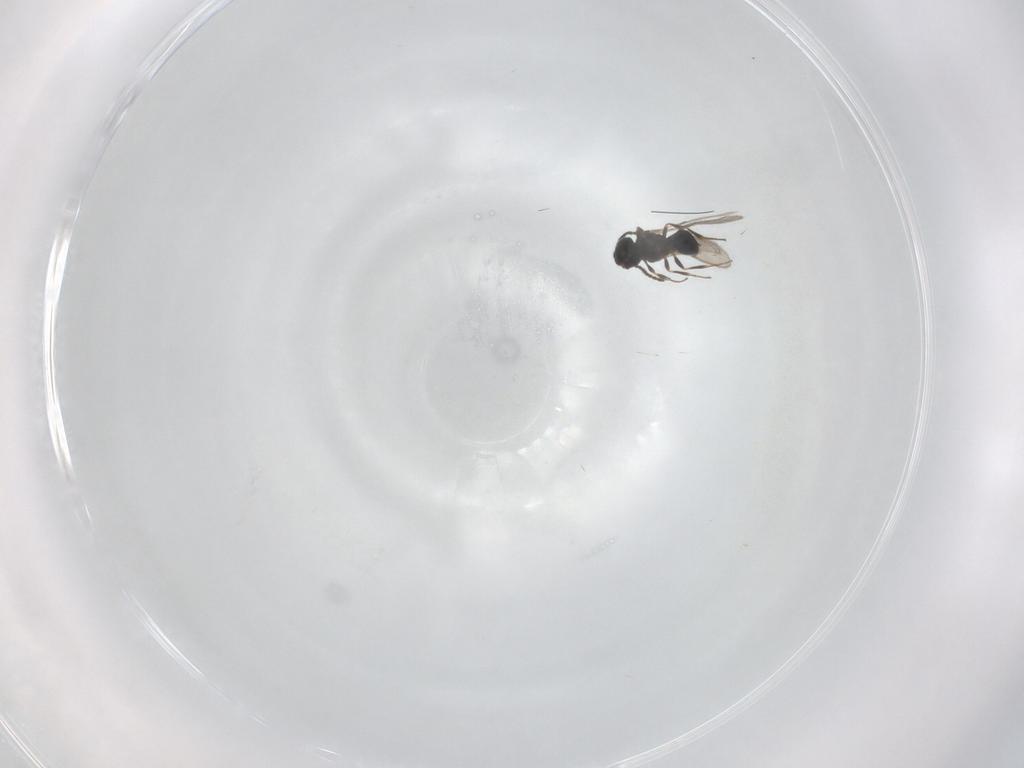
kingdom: Animalia
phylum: Arthropoda
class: Insecta
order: Hymenoptera
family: Scelionidae
